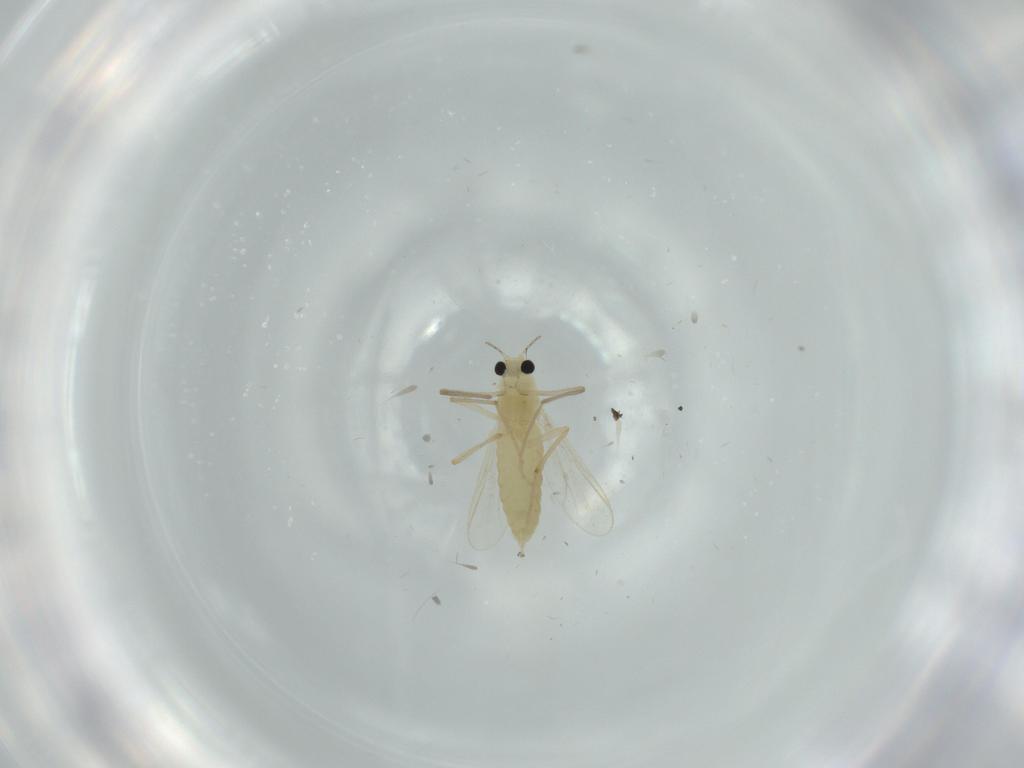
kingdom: Animalia
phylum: Arthropoda
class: Insecta
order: Diptera
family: Chironomidae
